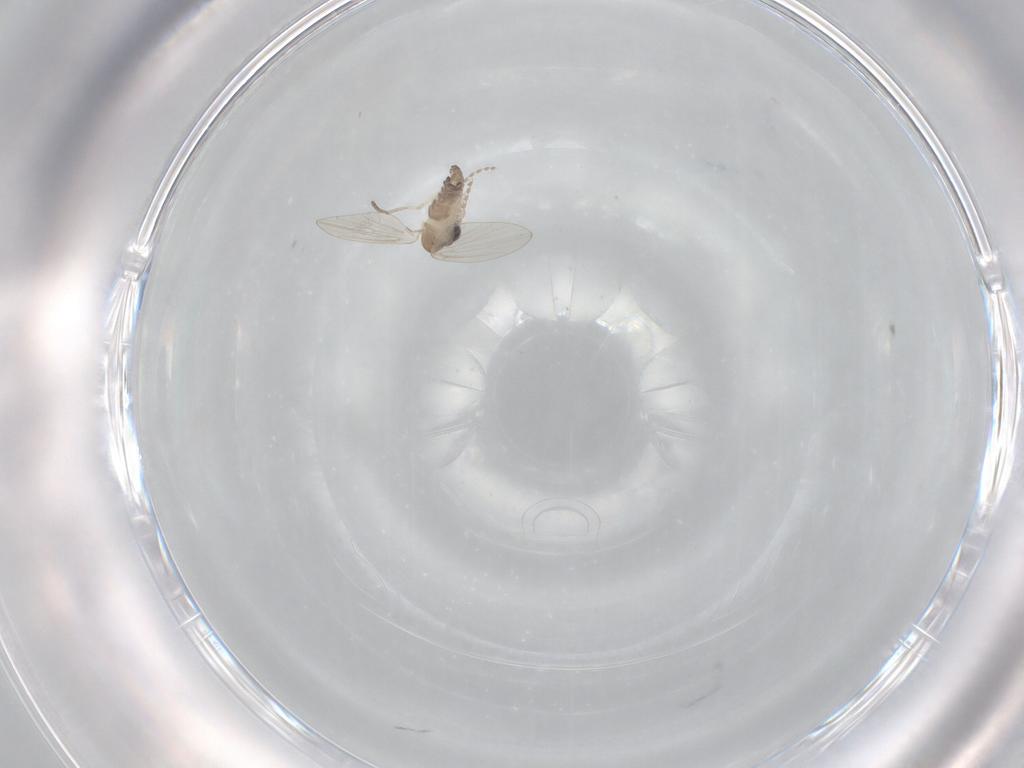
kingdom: Animalia
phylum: Arthropoda
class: Insecta
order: Diptera
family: Psychodidae
